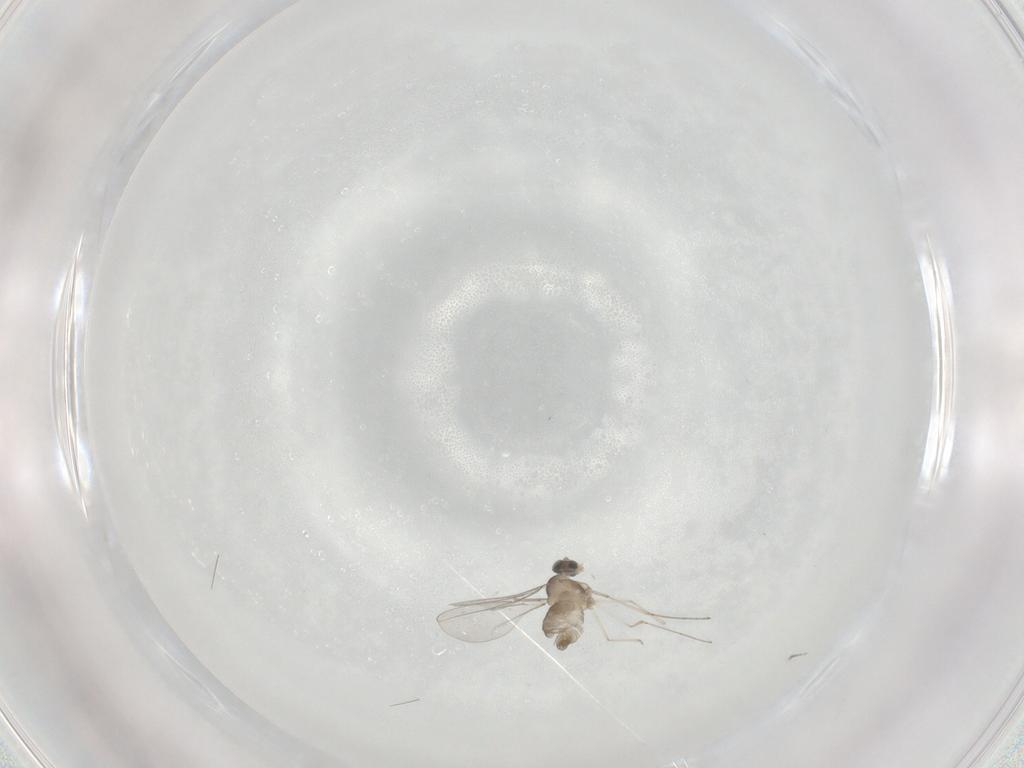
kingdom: Animalia
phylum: Arthropoda
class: Insecta
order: Diptera
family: Cecidomyiidae
